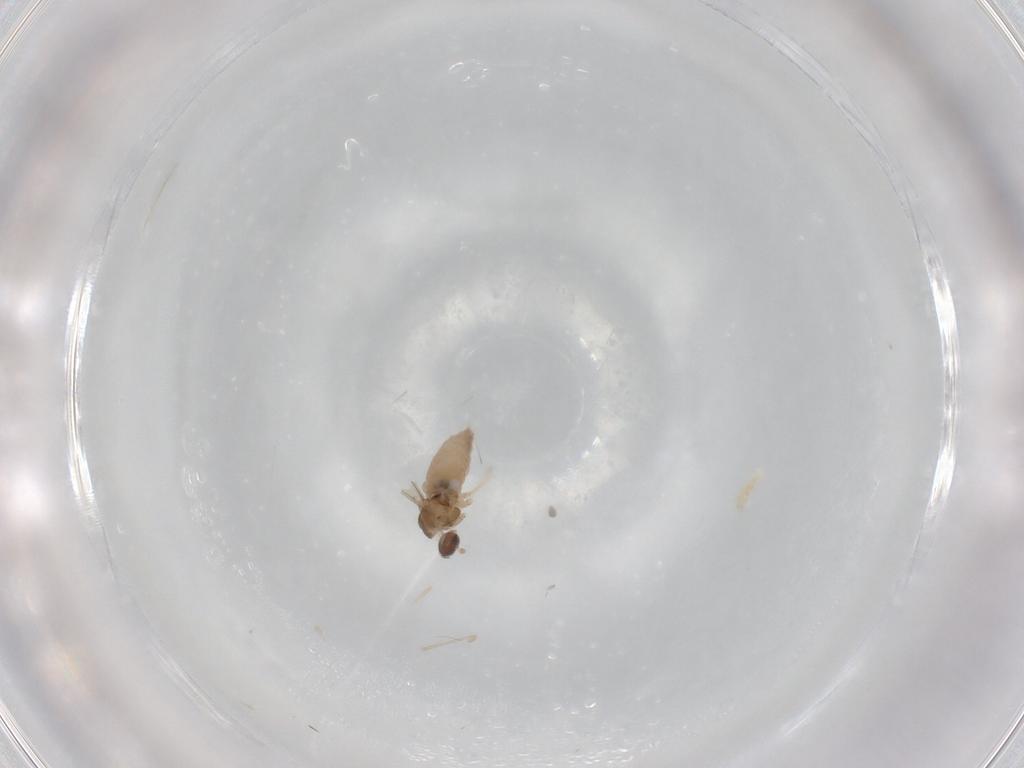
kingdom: Animalia
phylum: Arthropoda
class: Insecta
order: Diptera
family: Cecidomyiidae
